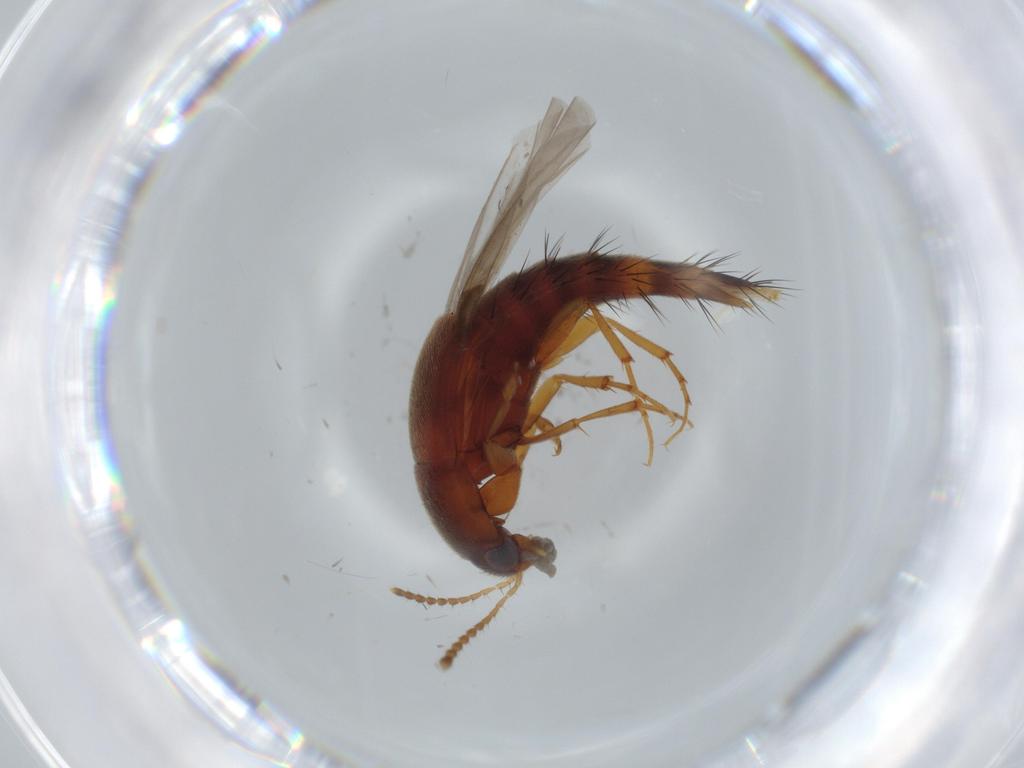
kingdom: Animalia
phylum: Arthropoda
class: Insecta
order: Coleoptera
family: Staphylinidae
